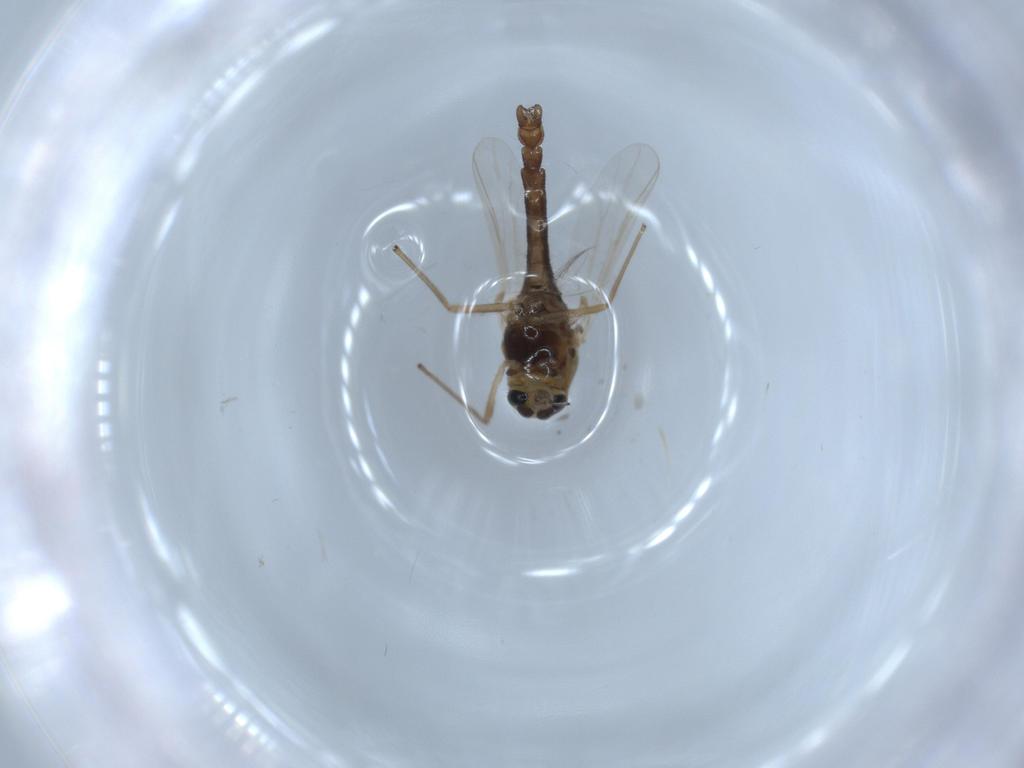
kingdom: Animalia
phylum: Arthropoda
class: Insecta
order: Diptera
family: Chironomidae
